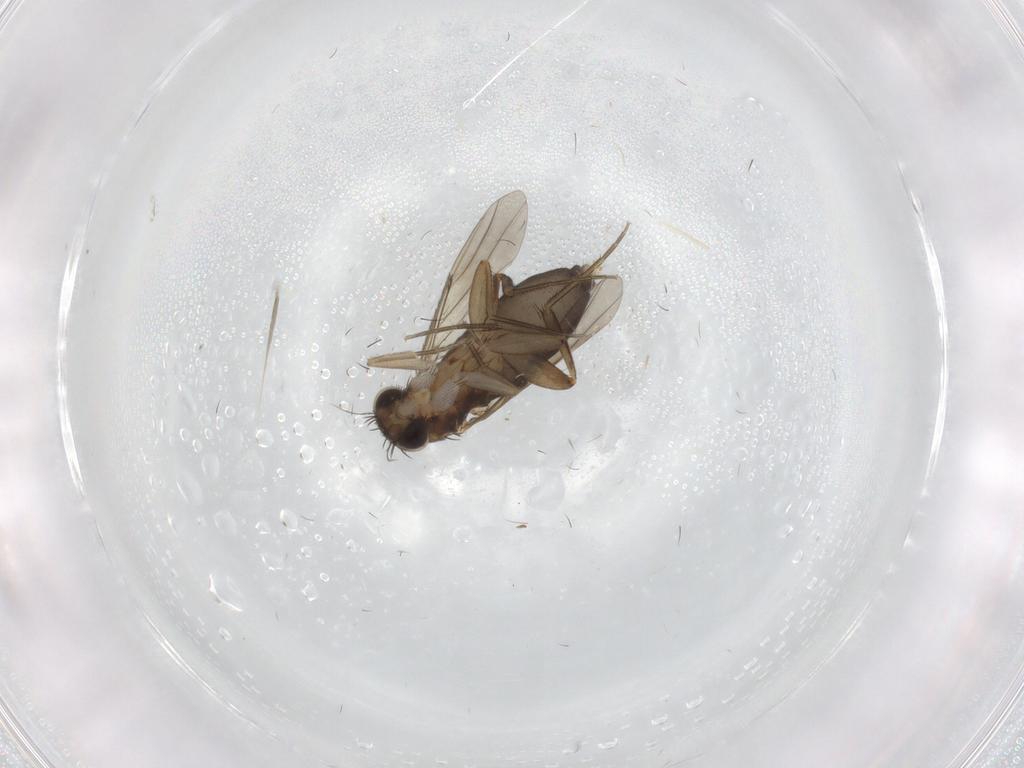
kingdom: Animalia
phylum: Arthropoda
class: Insecta
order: Diptera
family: Phoridae
